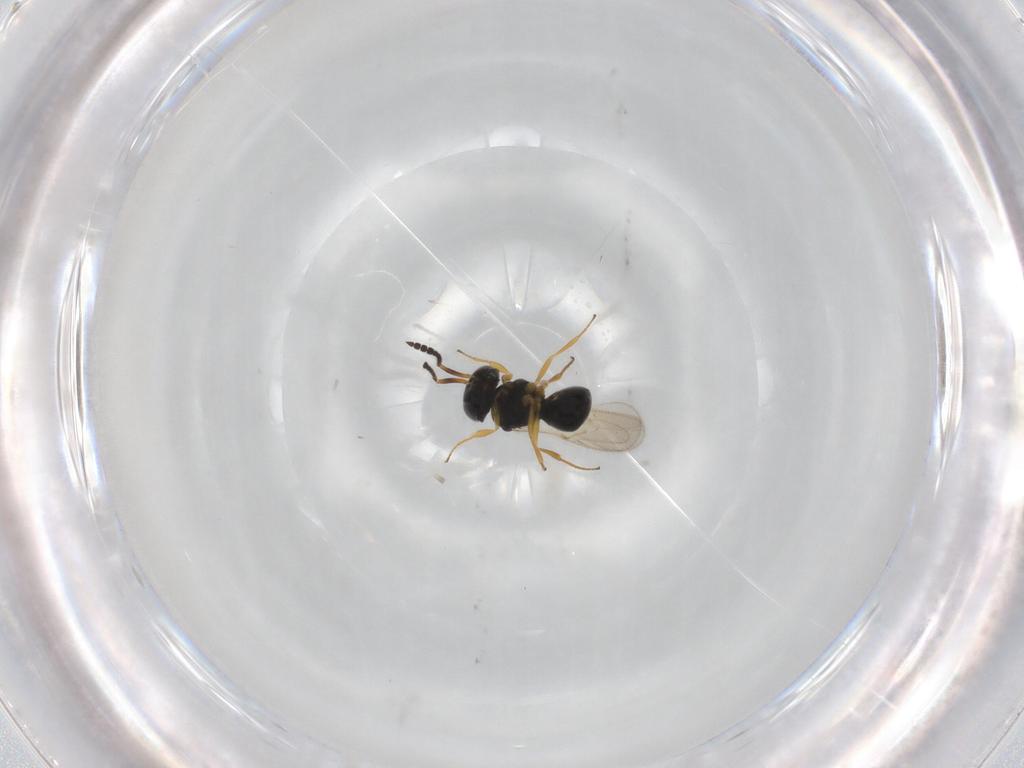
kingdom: Animalia
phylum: Arthropoda
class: Insecta
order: Hymenoptera
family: Scelionidae
